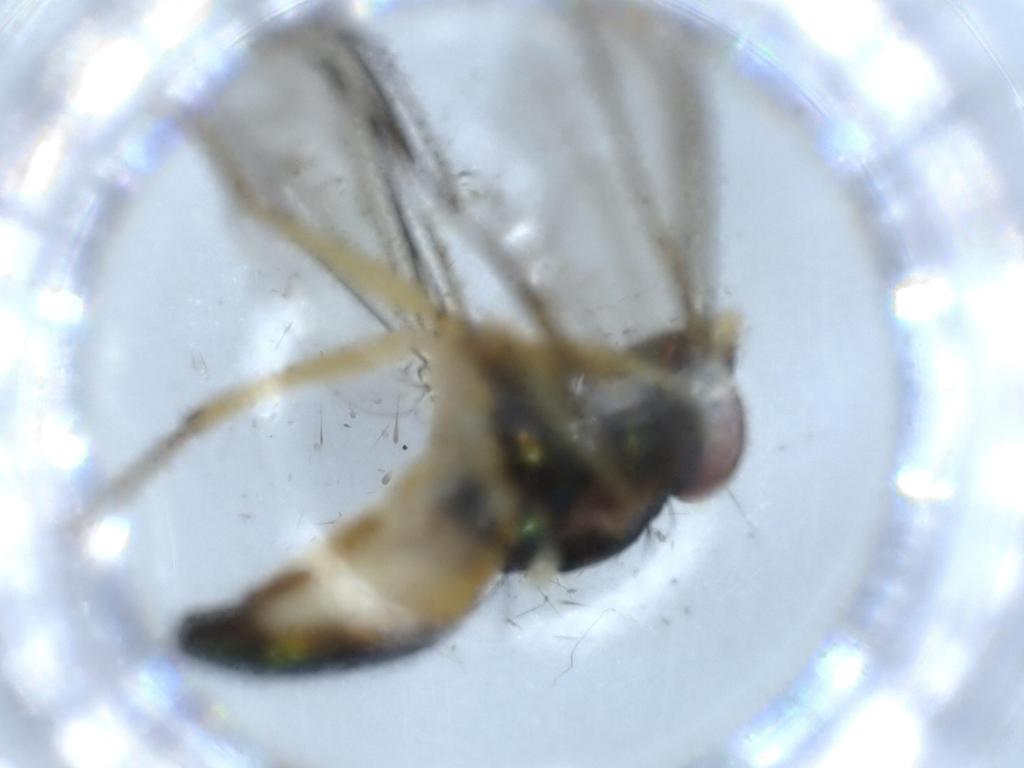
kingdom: Animalia
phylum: Arthropoda
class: Insecta
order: Diptera
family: Dolichopodidae
